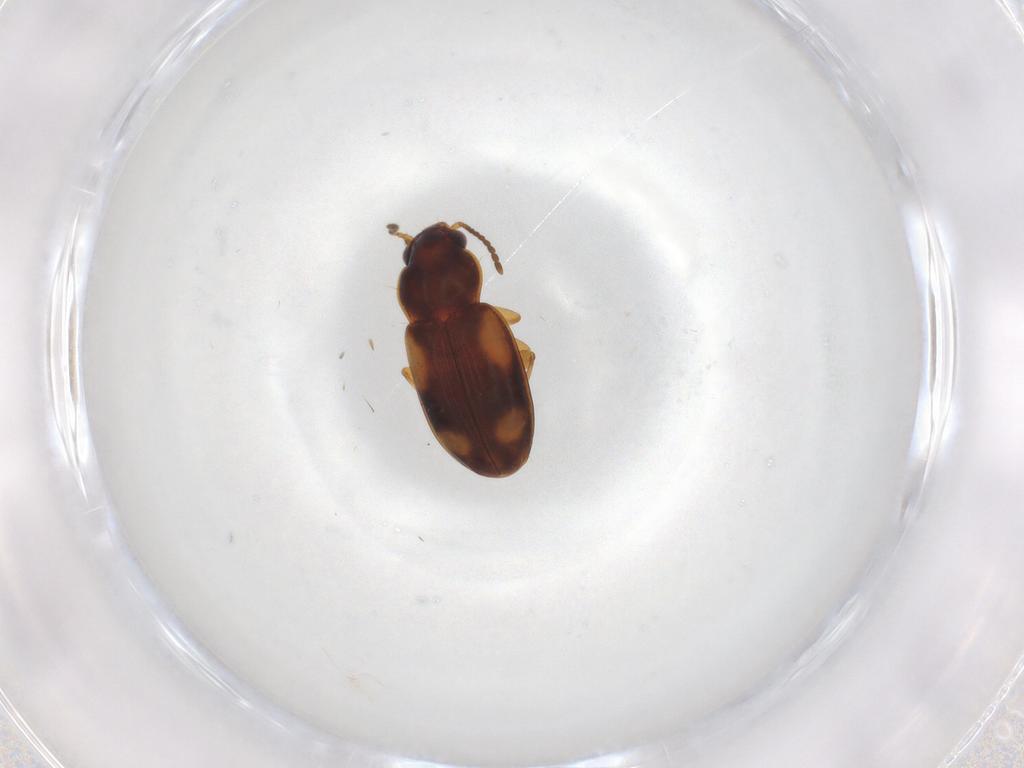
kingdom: Animalia
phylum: Arthropoda
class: Insecta
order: Coleoptera
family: Carabidae
